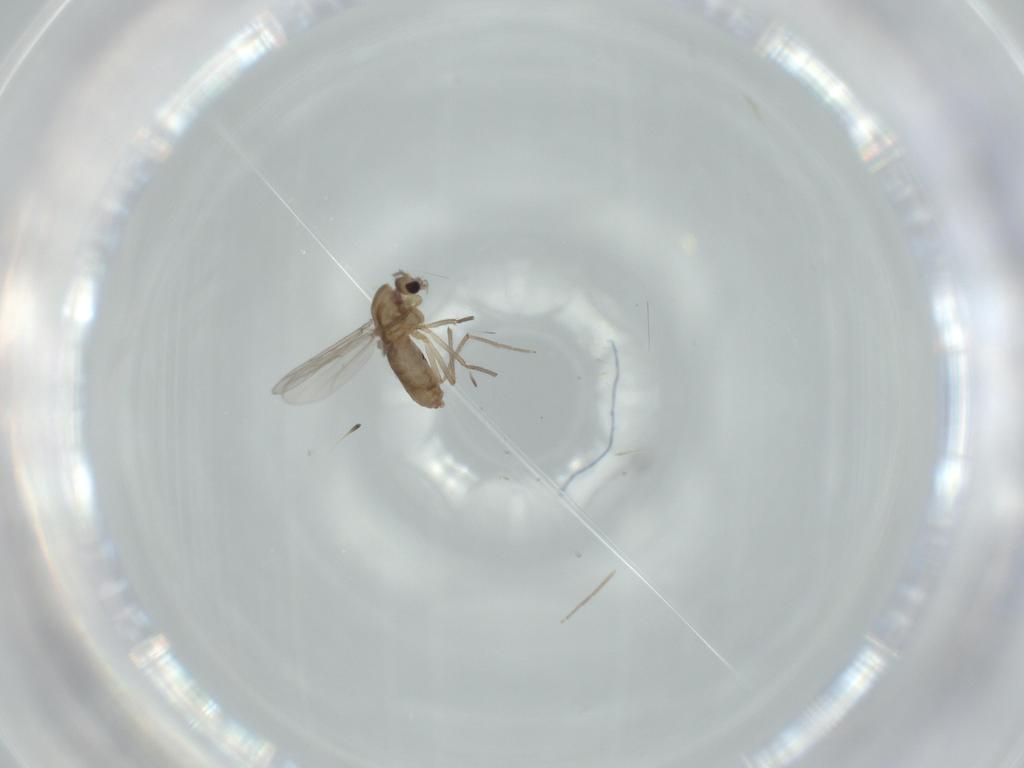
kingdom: Animalia
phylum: Arthropoda
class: Insecta
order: Diptera
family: Chironomidae
